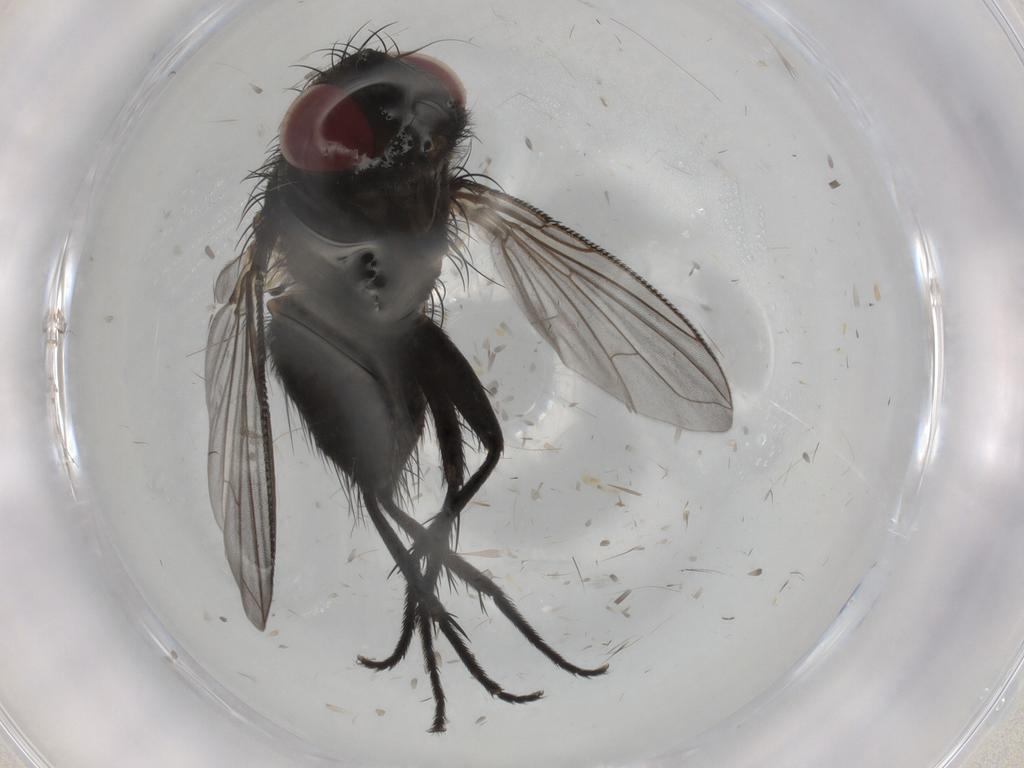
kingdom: Animalia
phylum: Arthropoda
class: Insecta
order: Diptera
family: Tachinidae
